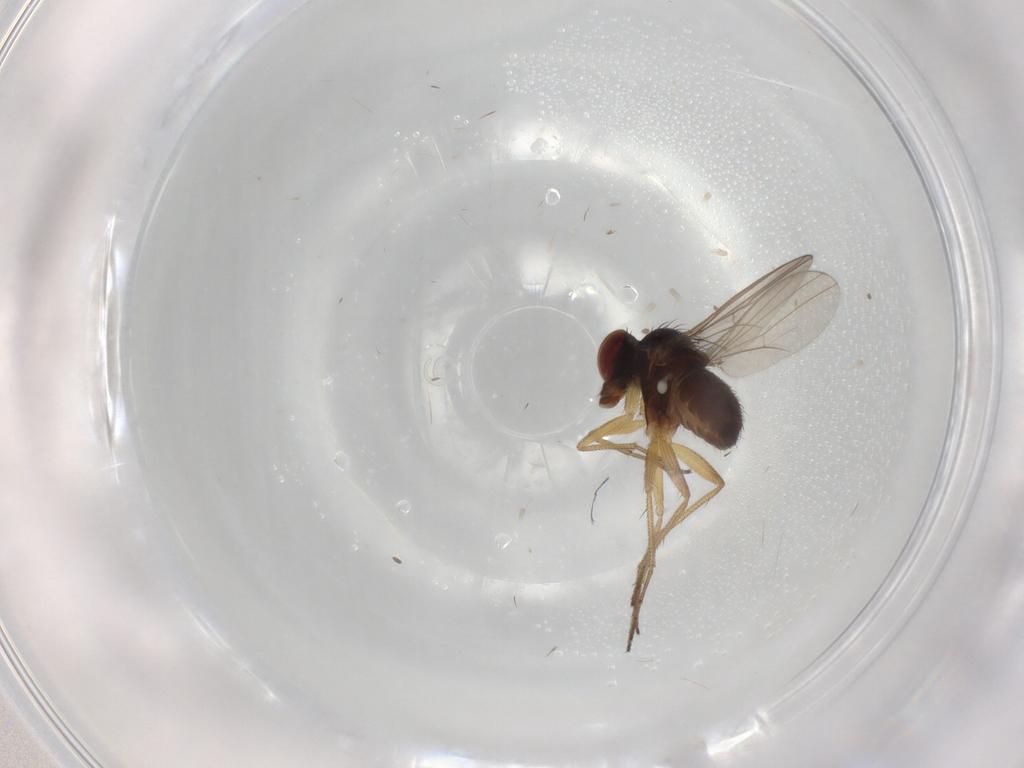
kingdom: Animalia
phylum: Arthropoda
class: Insecta
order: Diptera
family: Dolichopodidae
